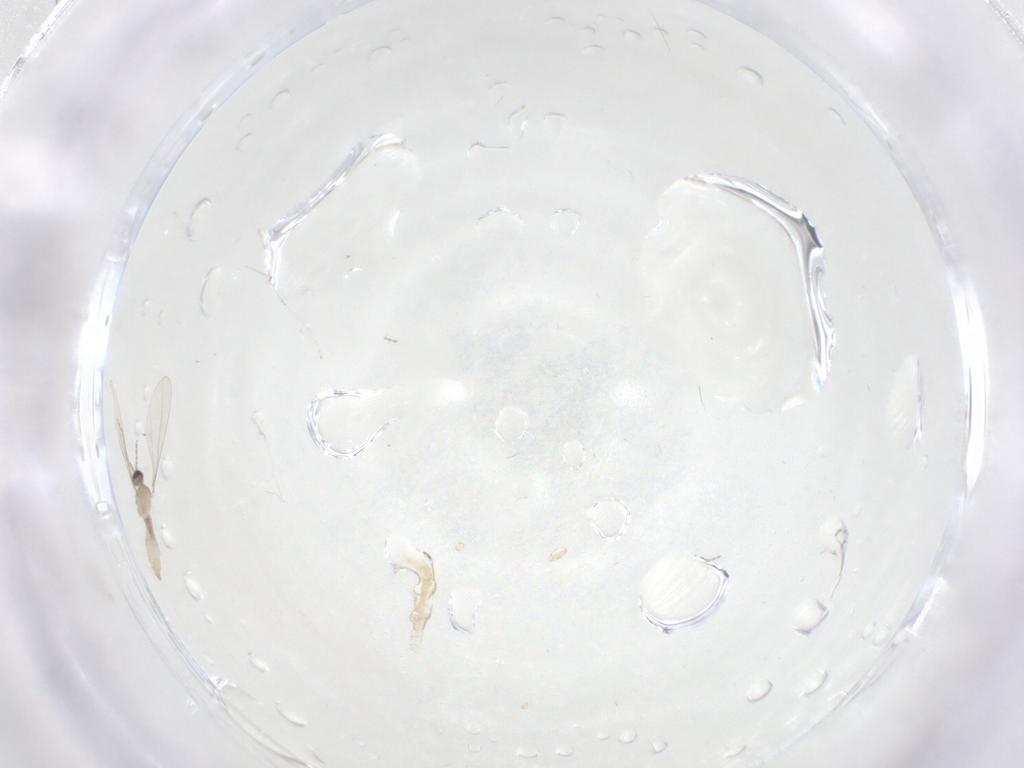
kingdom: Animalia
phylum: Arthropoda
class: Insecta
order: Diptera
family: Cecidomyiidae
